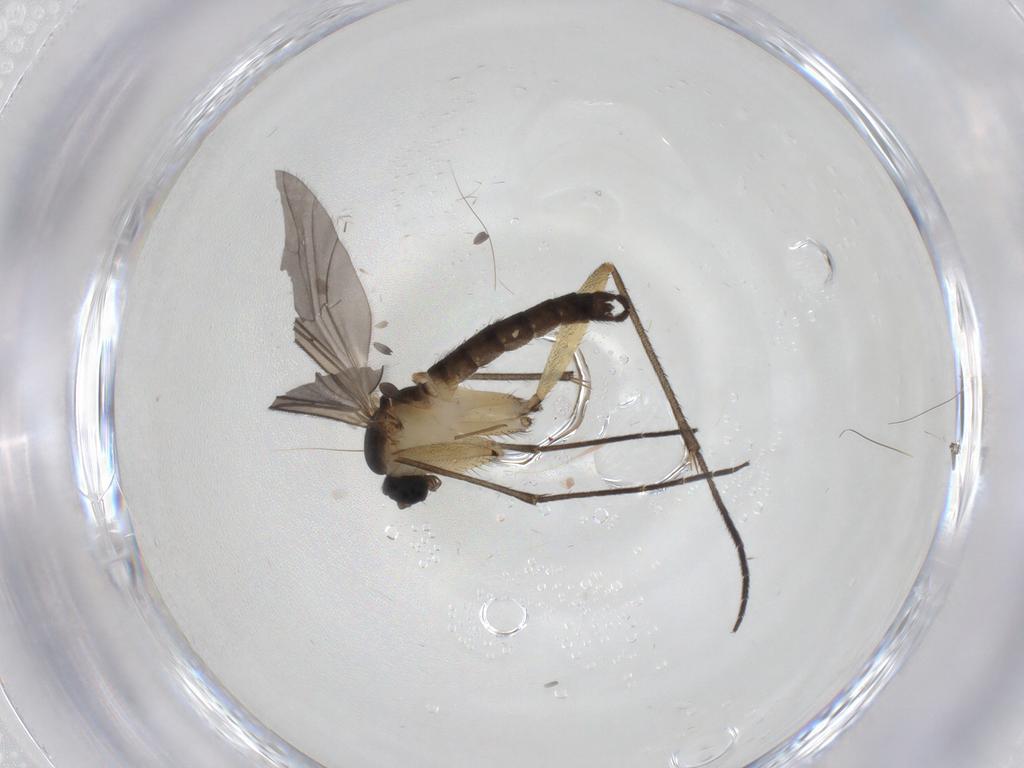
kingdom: Animalia
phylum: Arthropoda
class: Insecta
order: Diptera
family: Sciaridae
